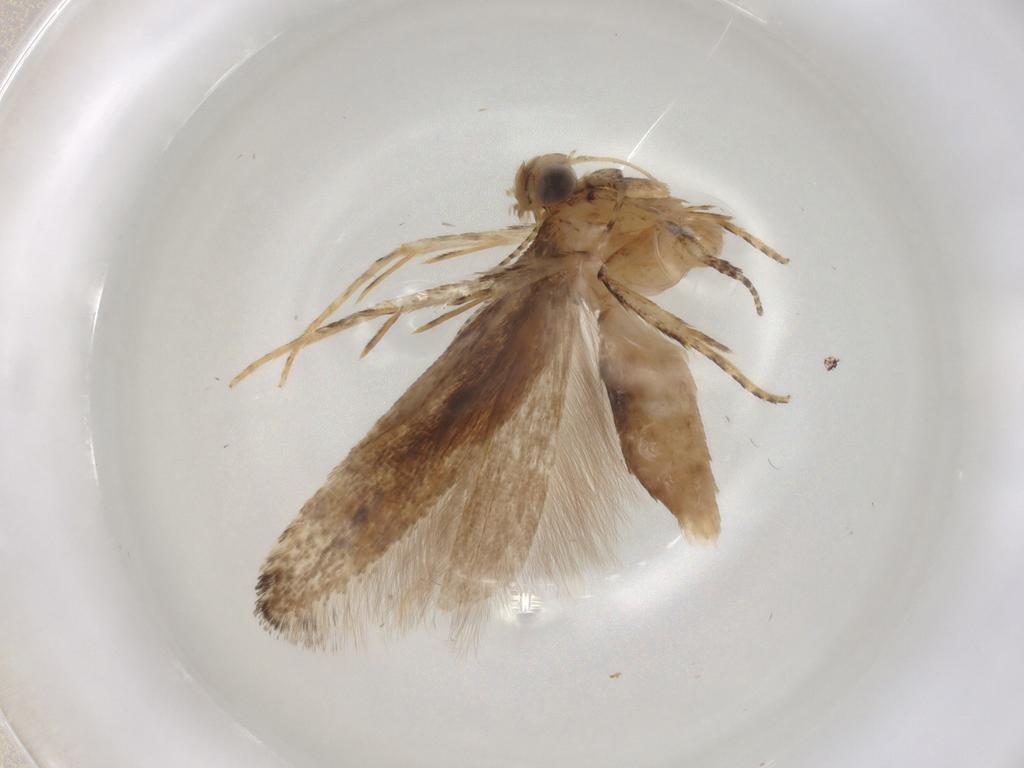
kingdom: Animalia
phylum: Arthropoda
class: Insecta
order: Lepidoptera
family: Gelechiidae
